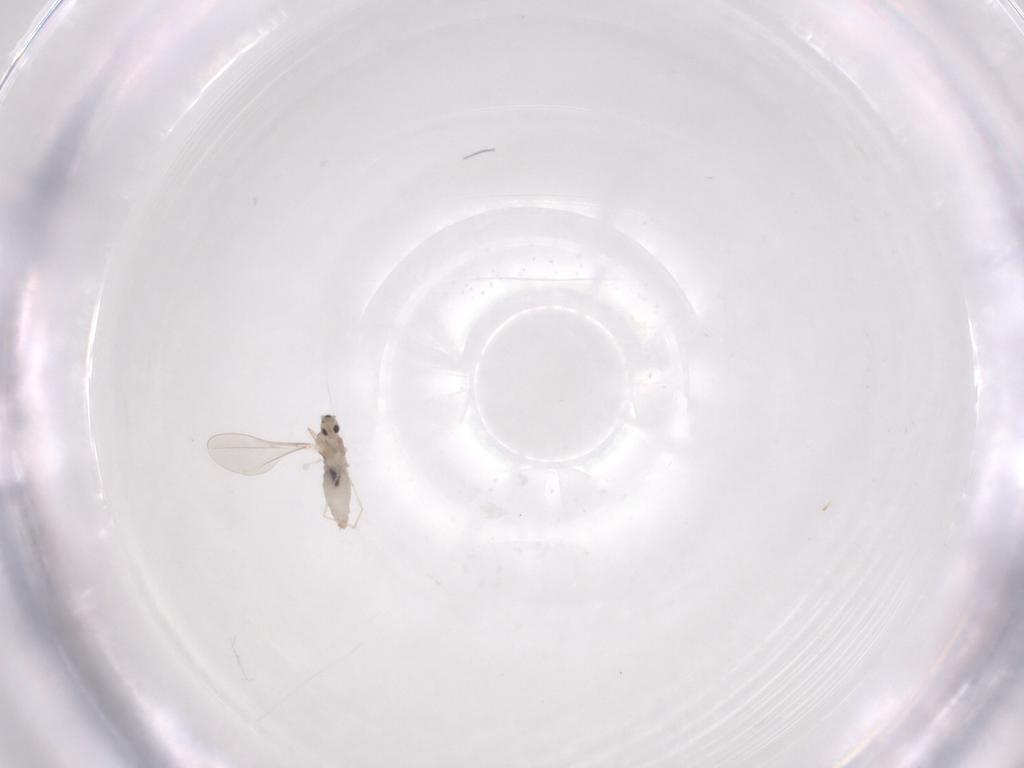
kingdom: Animalia
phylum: Arthropoda
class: Insecta
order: Diptera
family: Cecidomyiidae
